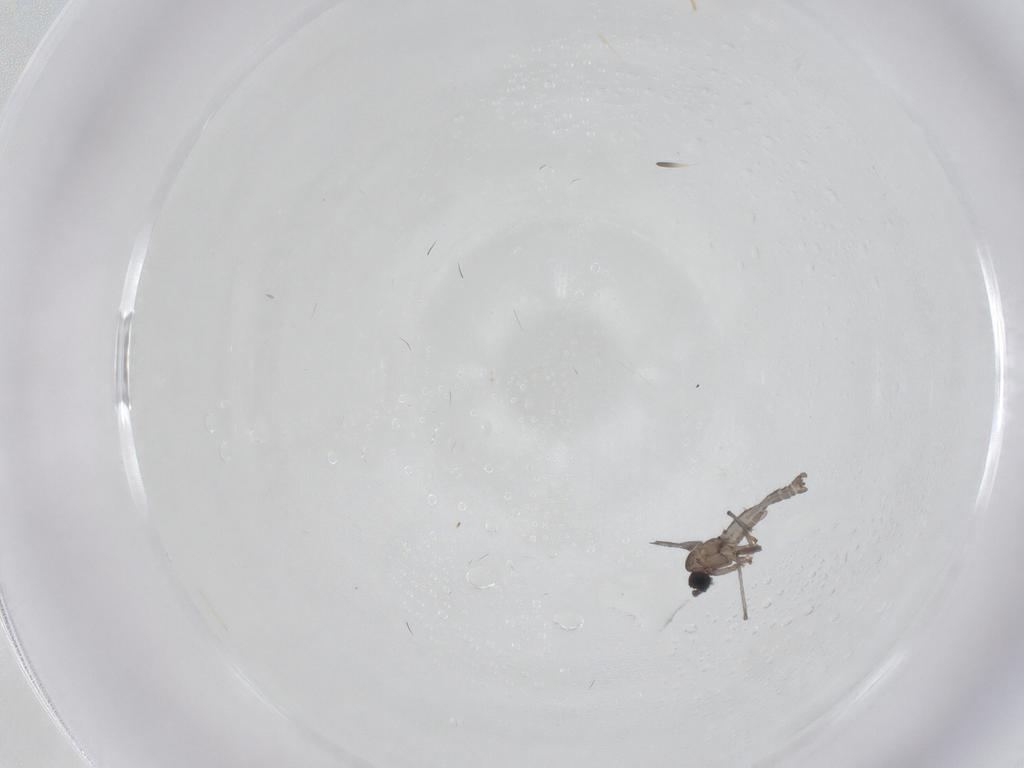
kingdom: Animalia
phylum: Arthropoda
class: Insecta
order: Diptera
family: Sciaridae
